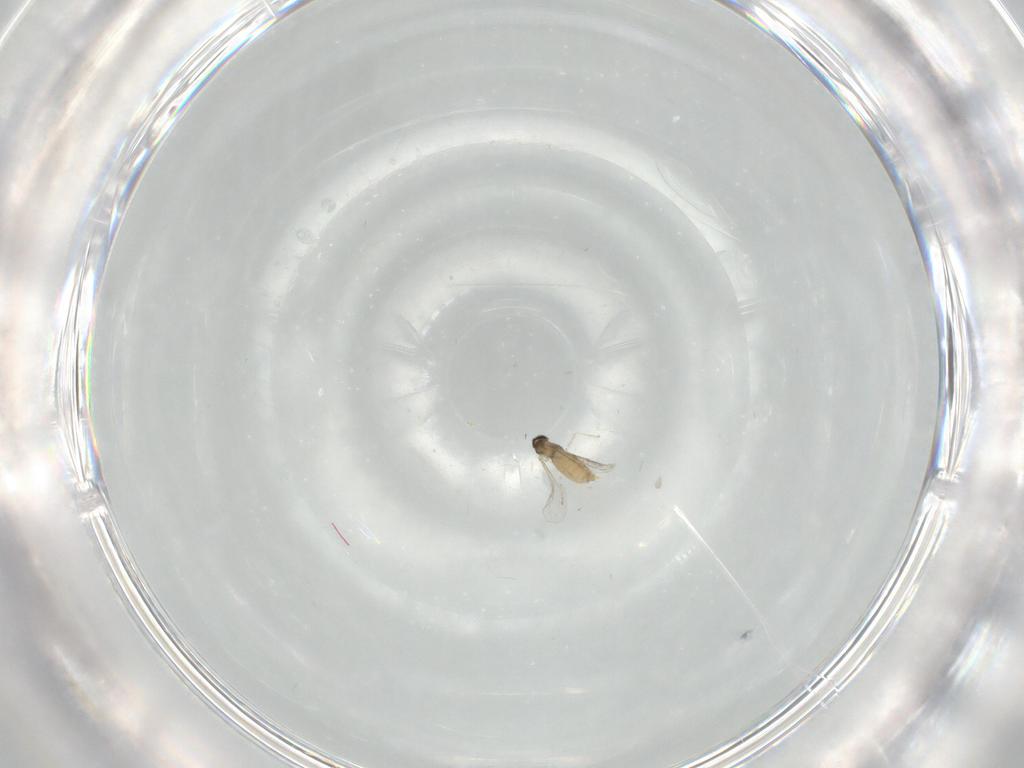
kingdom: Animalia
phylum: Arthropoda
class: Insecta
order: Diptera
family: Cecidomyiidae
